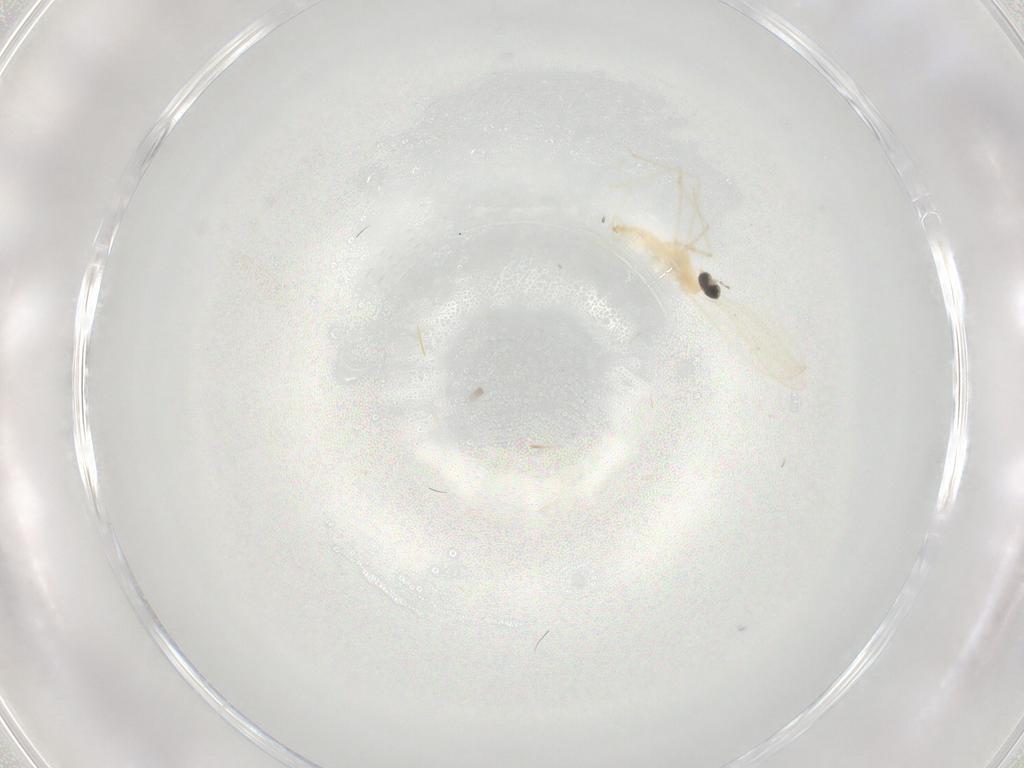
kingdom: Animalia
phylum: Arthropoda
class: Insecta
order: Diptera
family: Cecidomyiidae
